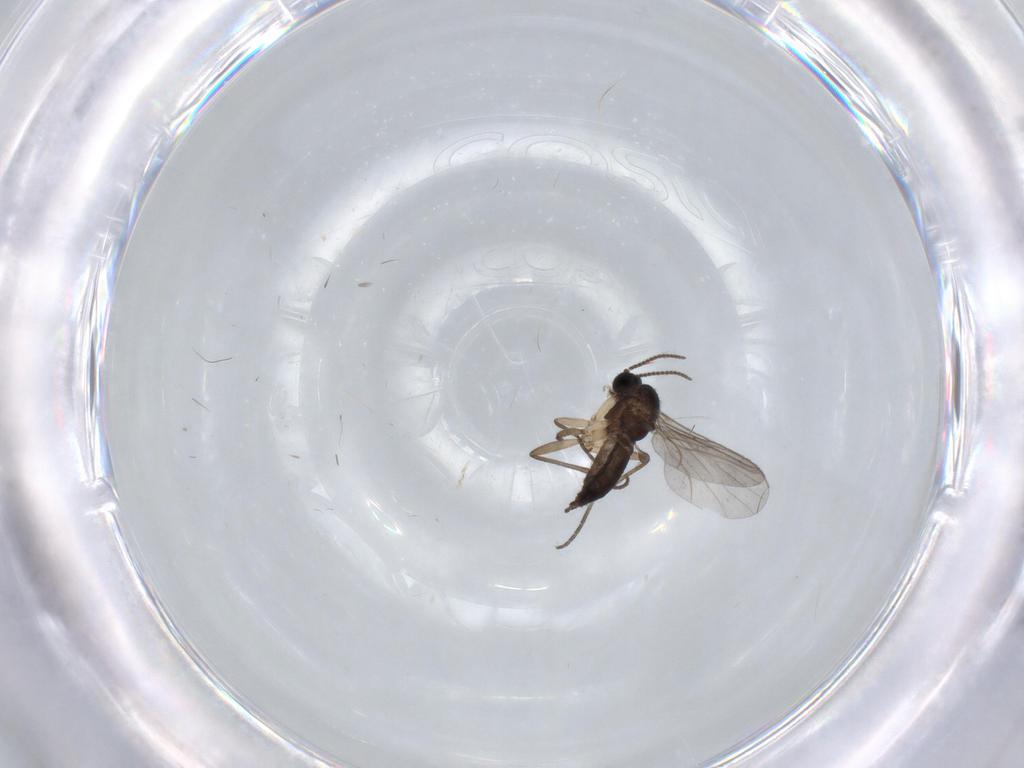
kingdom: Animalia
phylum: Arthropoda
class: Insecta
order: Diptera
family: Sciaridae
